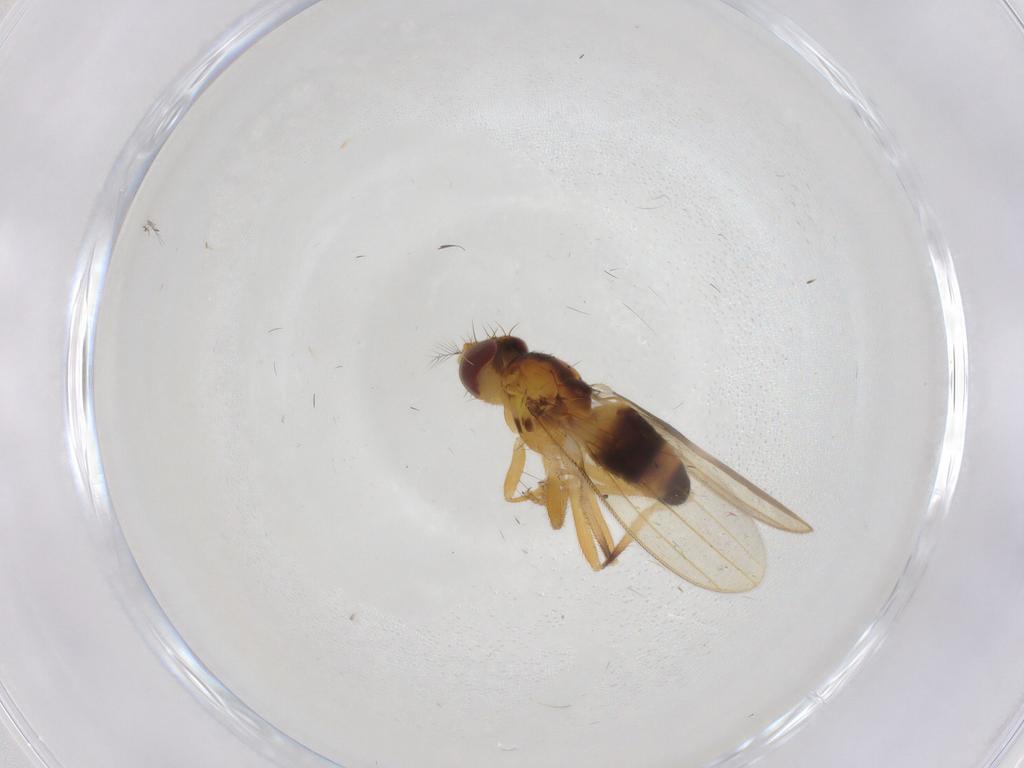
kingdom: Animalia
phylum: Arthropoda
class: Insecta
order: Diptera
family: Periscelididae
